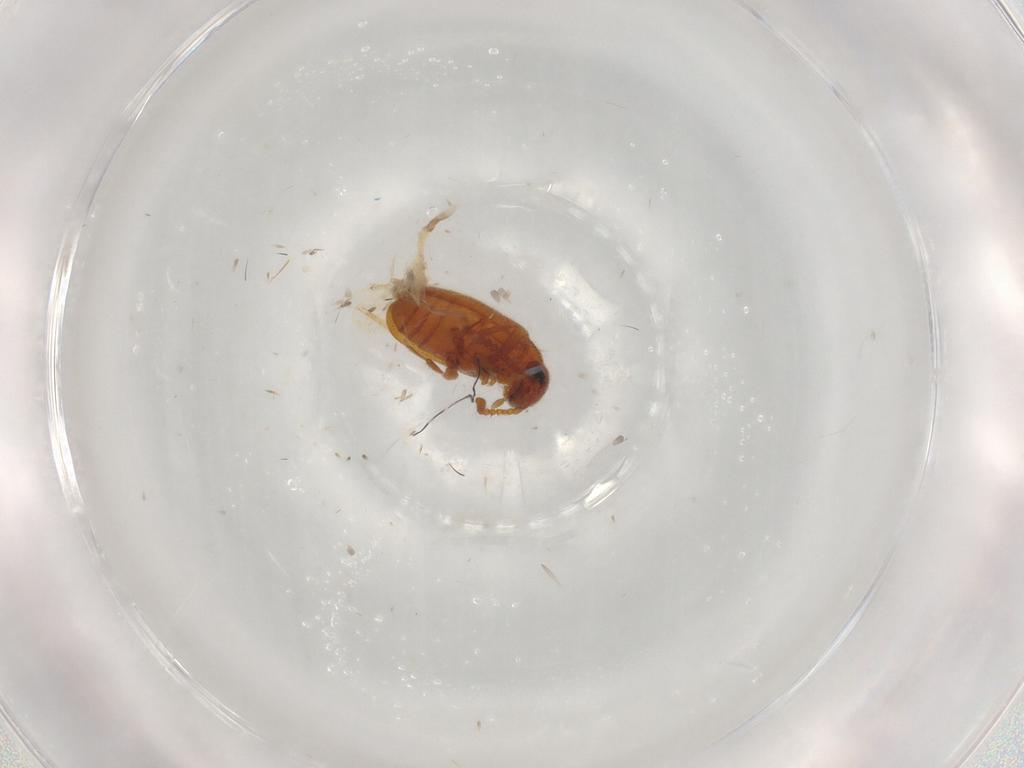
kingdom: Animalia
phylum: Arthropoda
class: Insecta
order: Coleoptera
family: Aderidae
